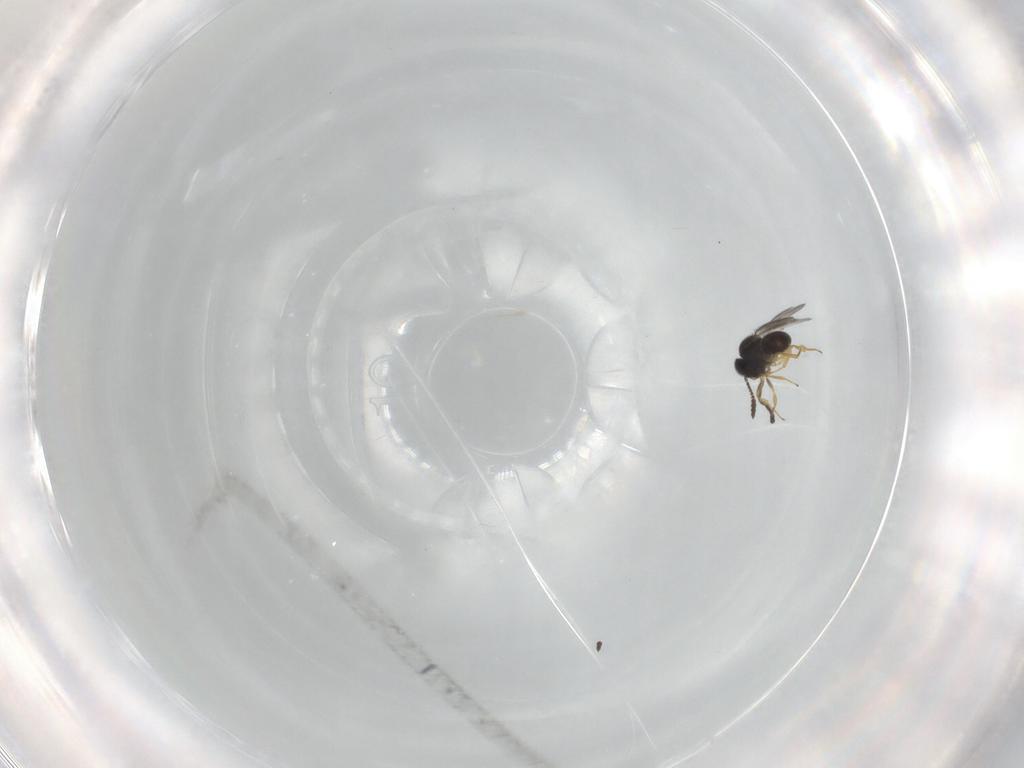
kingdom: Animalia
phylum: Arthropoda
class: Insecta
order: Hymenoptera
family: Scelionidae
